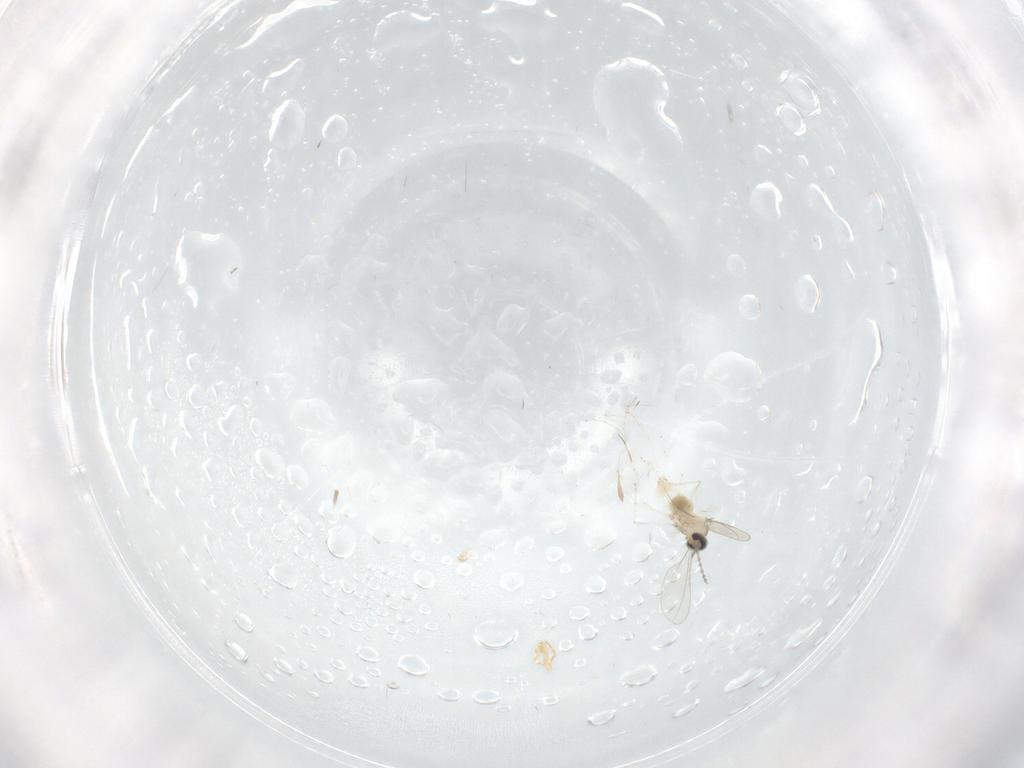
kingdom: Animalia
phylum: Arthropoda
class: Insecta
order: Diptera
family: Cecidomyiidae
